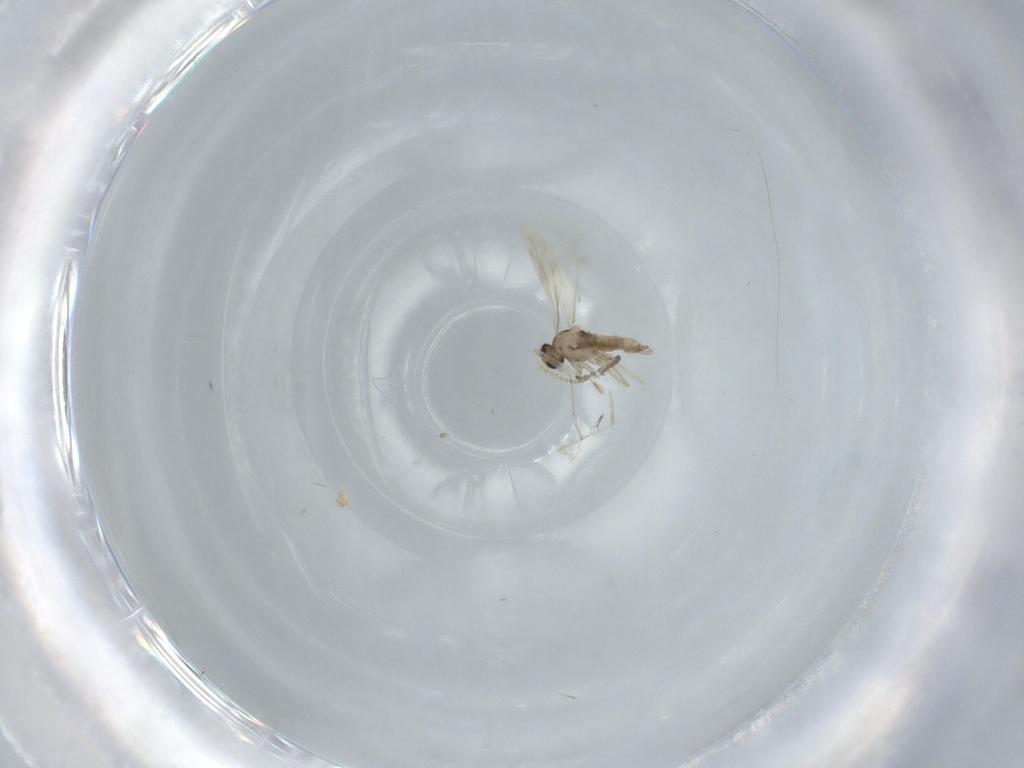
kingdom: Animalia
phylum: Arthropoda
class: Insecta
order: Diptera
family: Cecidomyiidae
